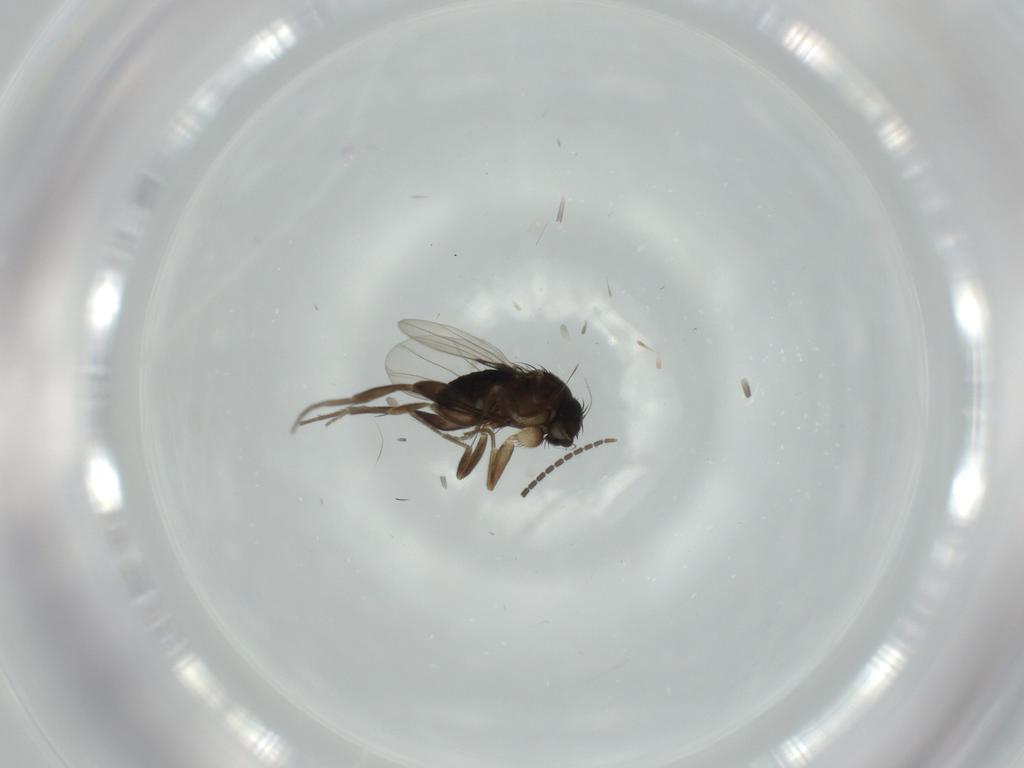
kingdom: Animalia
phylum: Arthropoda
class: Insecta
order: Diptera
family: Phoridae
